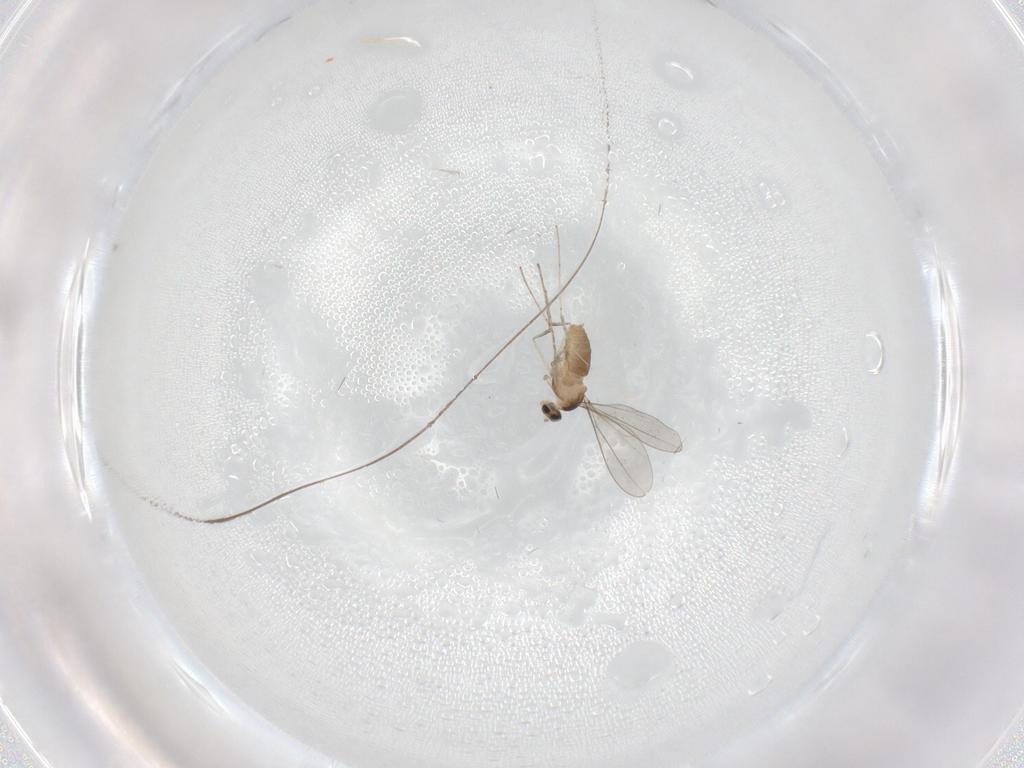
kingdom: Animalia
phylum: Arthropoda
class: Insecta
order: Diptera
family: Cecidomyiidae
